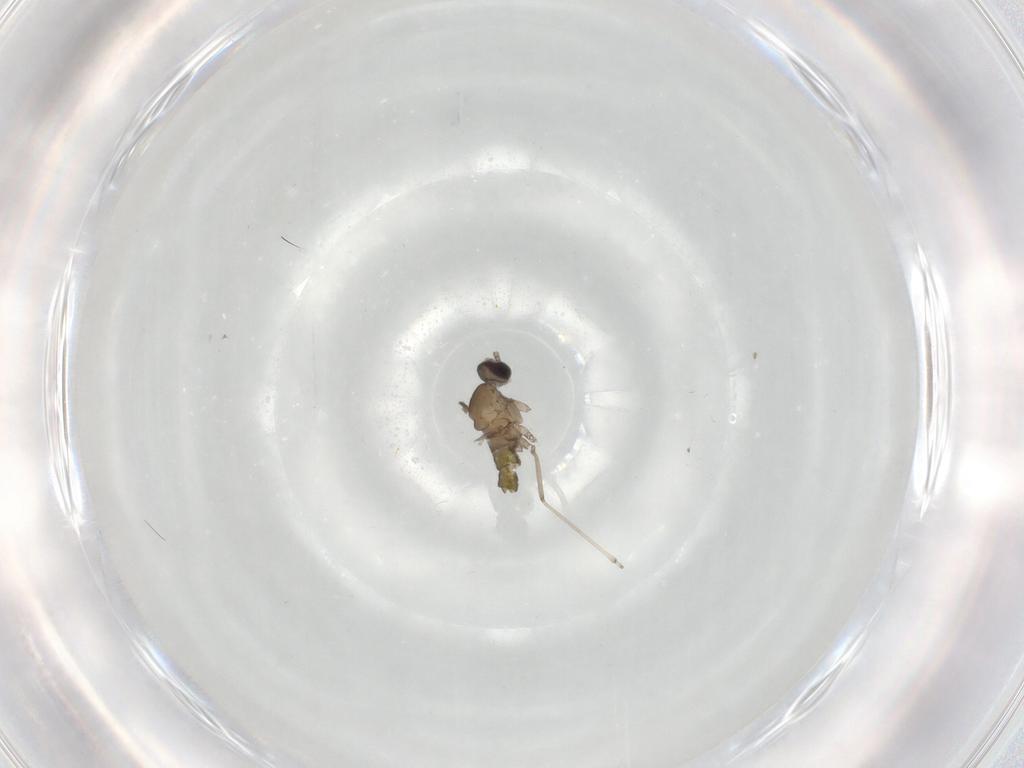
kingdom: Animalia
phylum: Arthropoda
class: Insecta
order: Diptera
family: Cecidomyiidae
